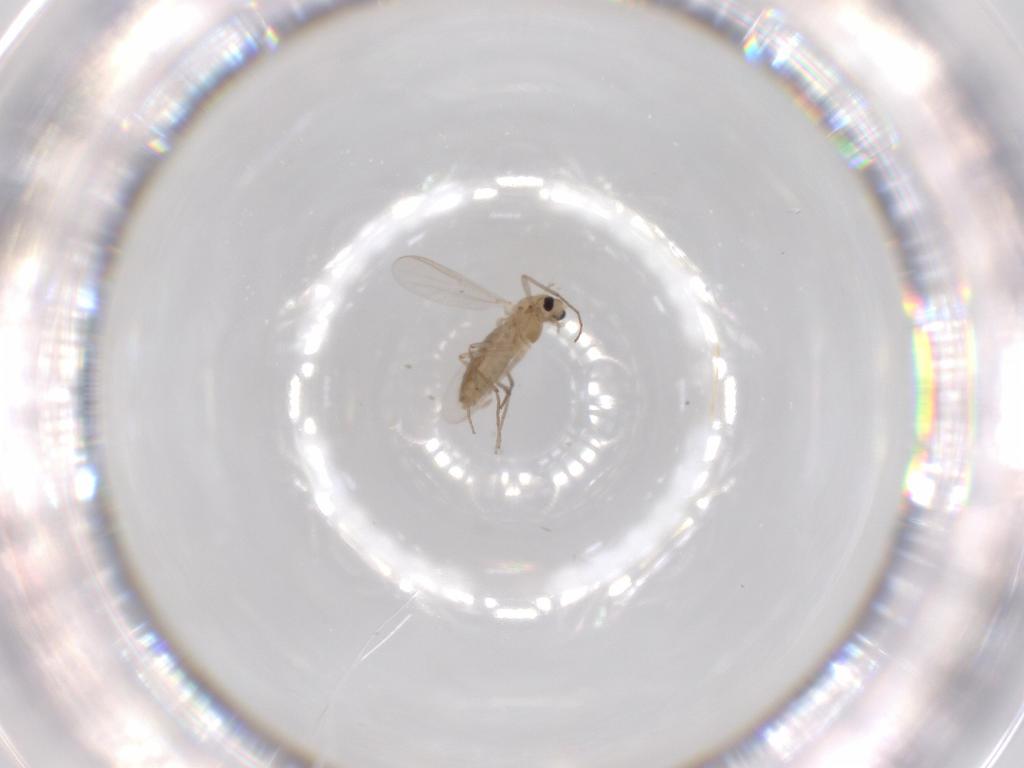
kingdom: Animalia
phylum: Arthropoda
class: Insecta
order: Diptera
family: Chironomidae
